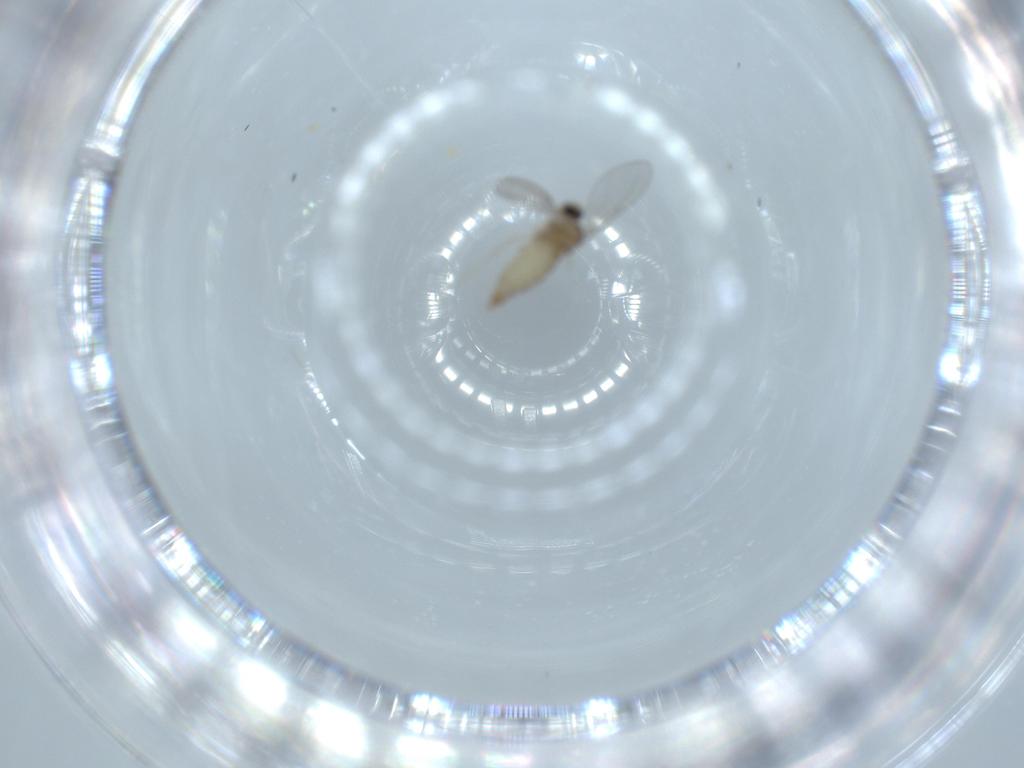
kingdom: Animalia
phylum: Arthropoda
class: Insecta
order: Diptera
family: Cecidomyiidae
